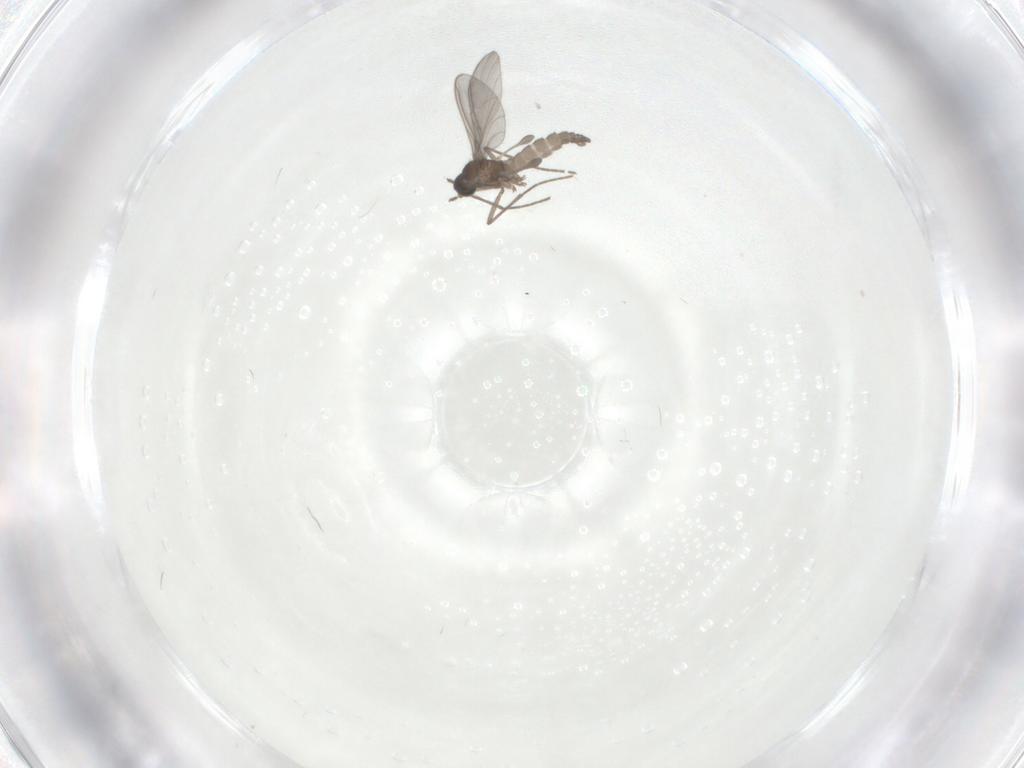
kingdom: Animalia
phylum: Arthropoda
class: Insecta
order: Diptera
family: Sciaridae
